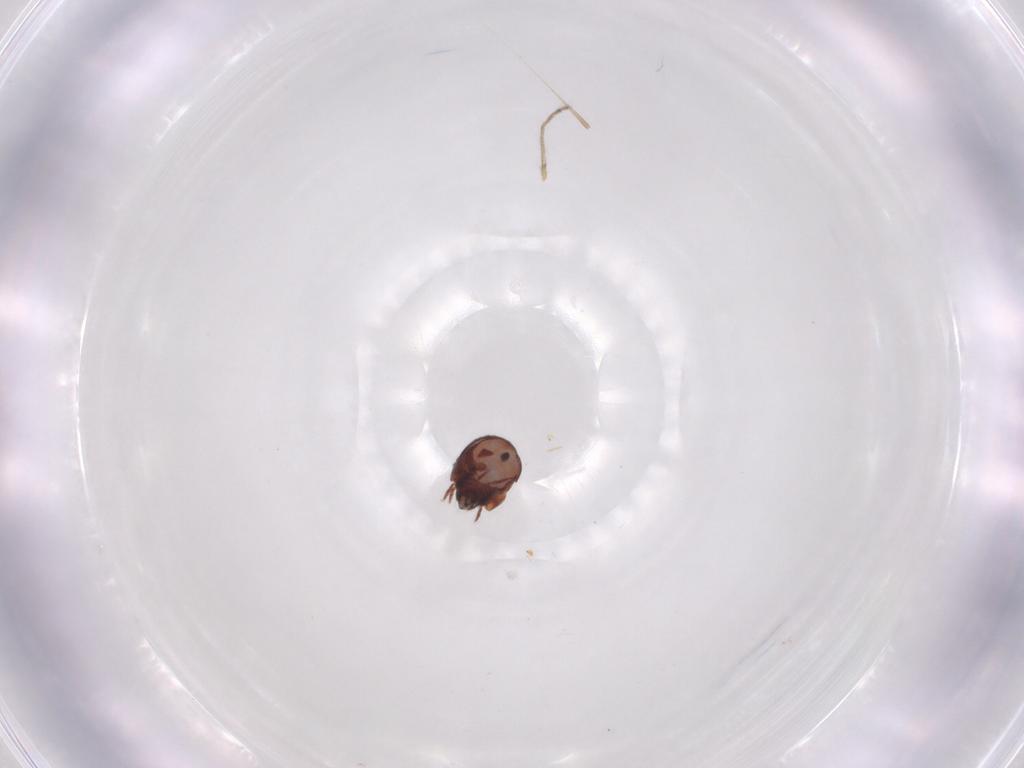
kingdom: Animalia
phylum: Arthropoda
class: Arachnida
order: Sarcoptiformes
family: Humerobatidae
